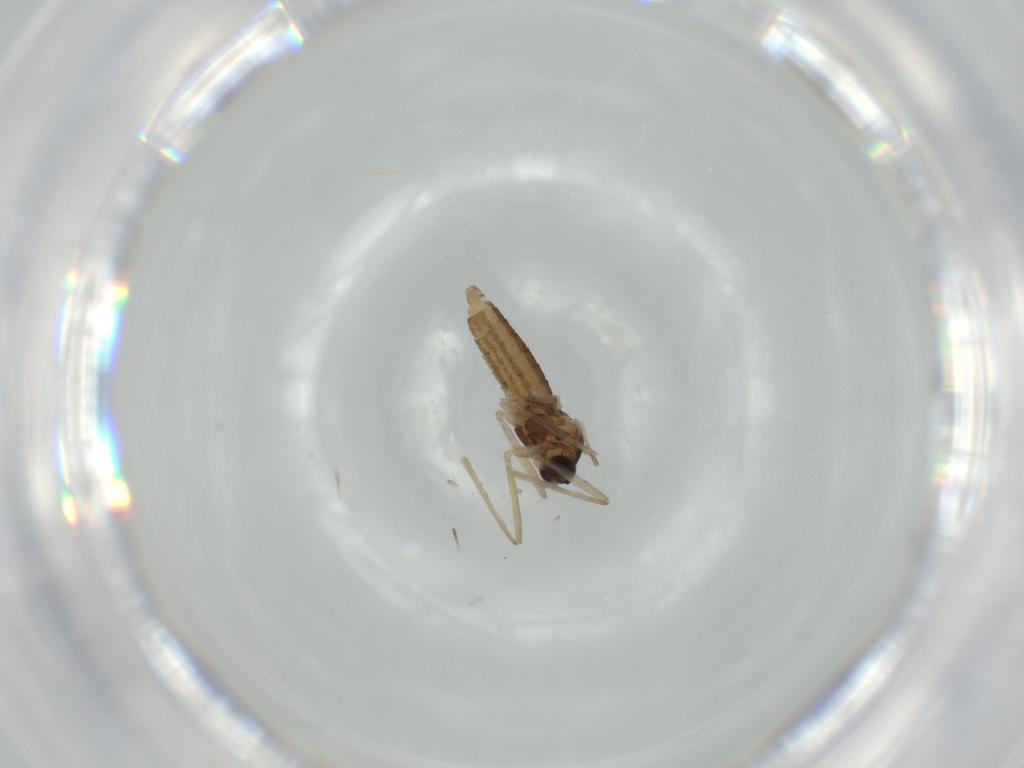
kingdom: Animalia
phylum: Arthropoda
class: Insecta
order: Diptera
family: Cecidomyiidae
